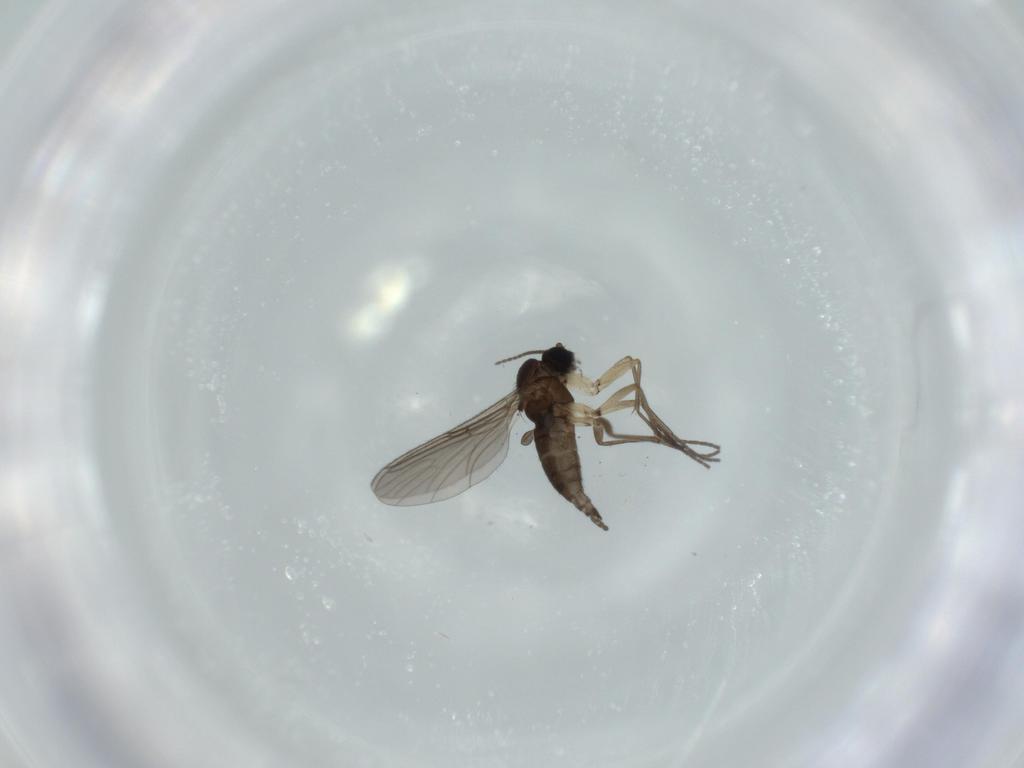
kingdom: Animalia
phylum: Arthropoda
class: Insecta
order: Diptera
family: Sciaridae
